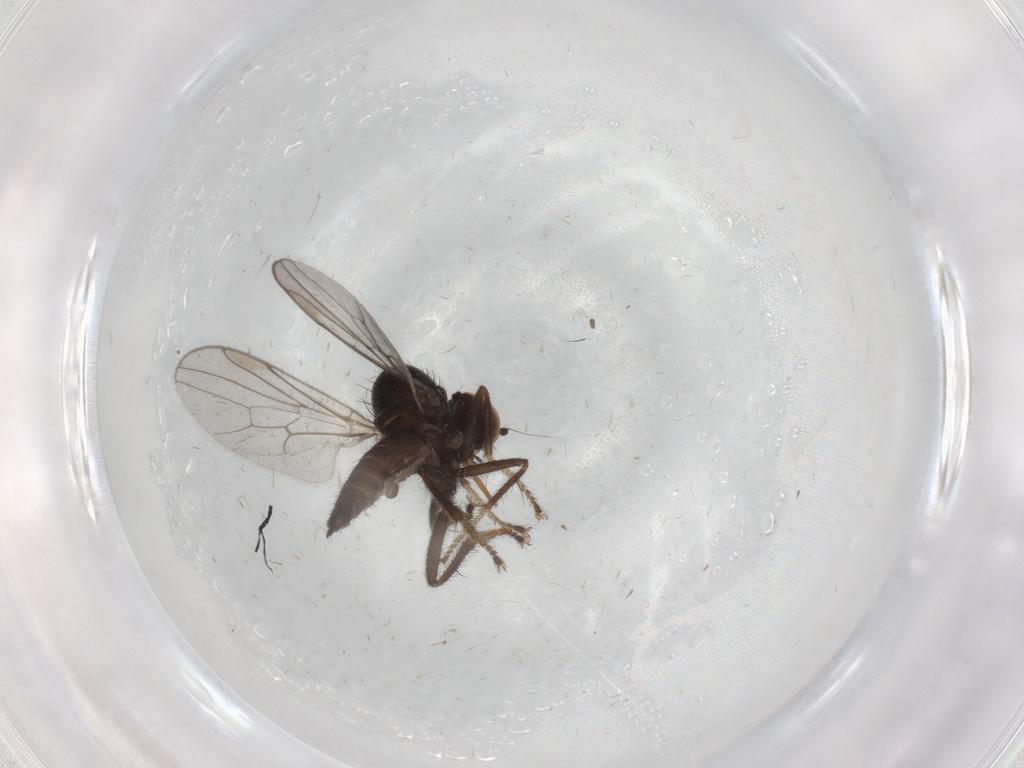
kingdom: Animalia
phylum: Arthropoda
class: Insecta
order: Diptera
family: Hybotidae
